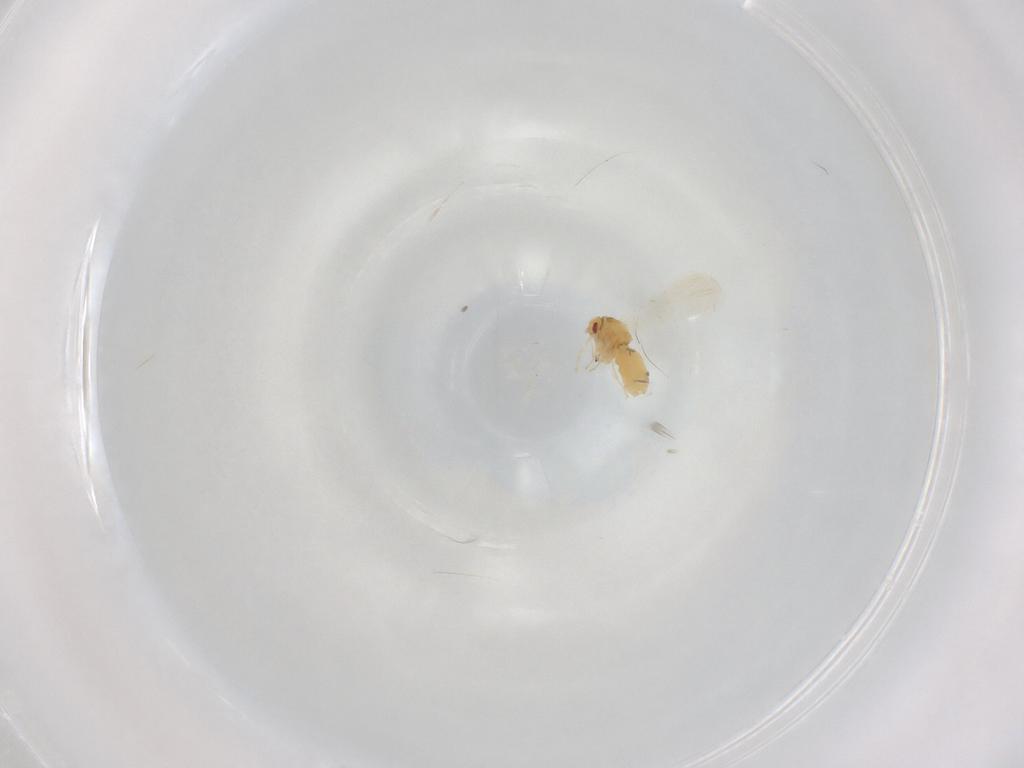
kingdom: Animalia
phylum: Arthropoda
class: Insecta
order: Hemiptera
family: Aleyrodidae
